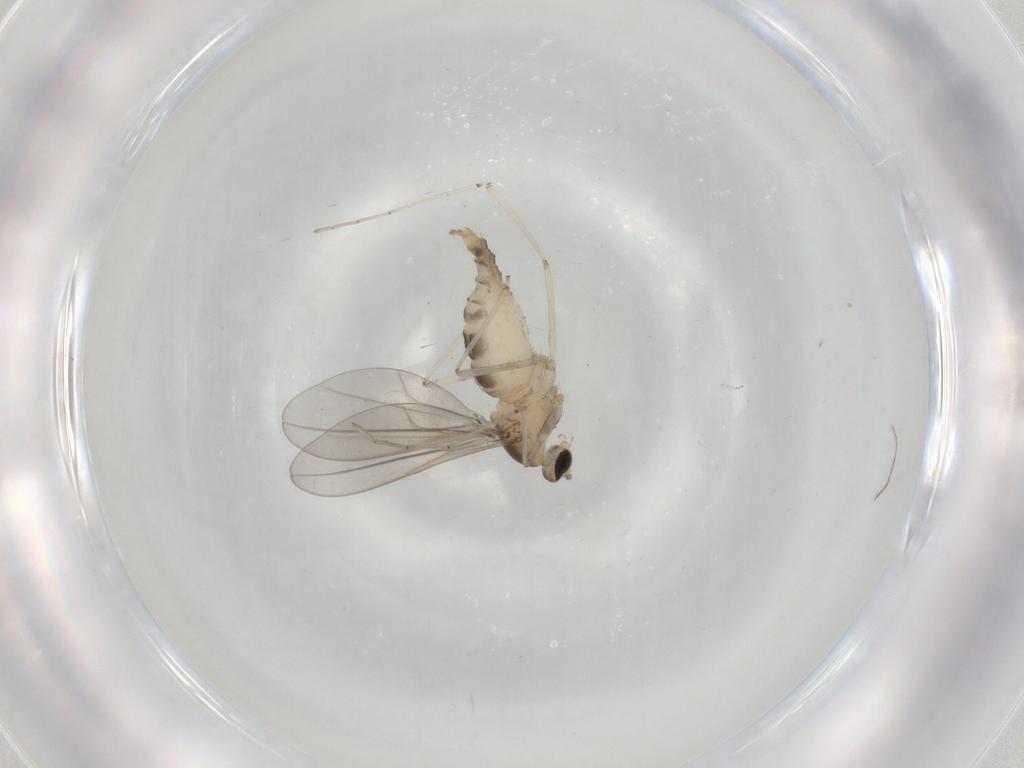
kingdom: Animalia
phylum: Arthropoda
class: Insecta
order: Diptera
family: Cecidomyiidae
